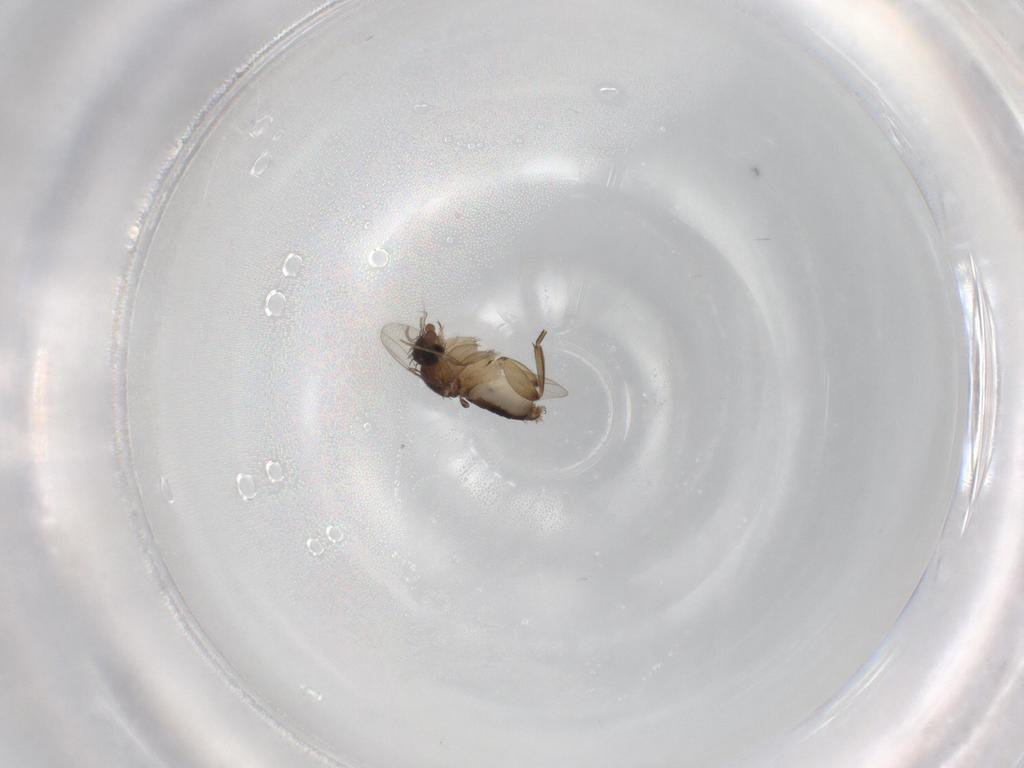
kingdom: Animalia
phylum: Arthropoda
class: Insecta
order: Diptera
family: Phoridae
